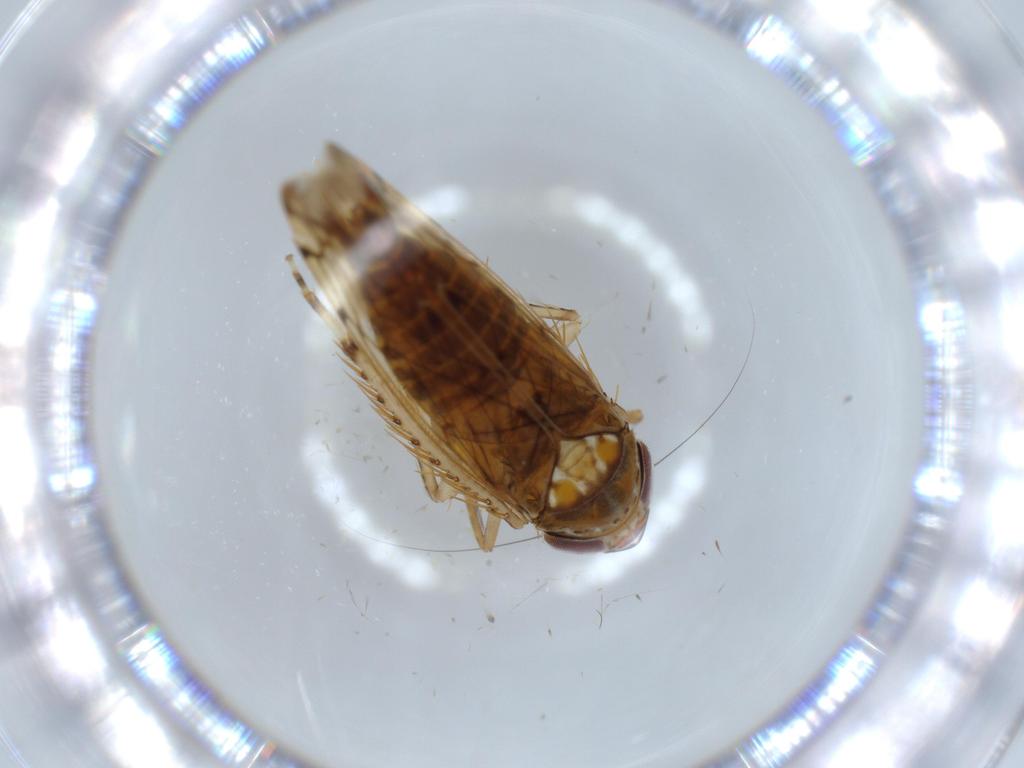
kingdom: Animalia
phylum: Arthropoda
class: Insecta
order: Hemiptera
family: Cicadellidae
